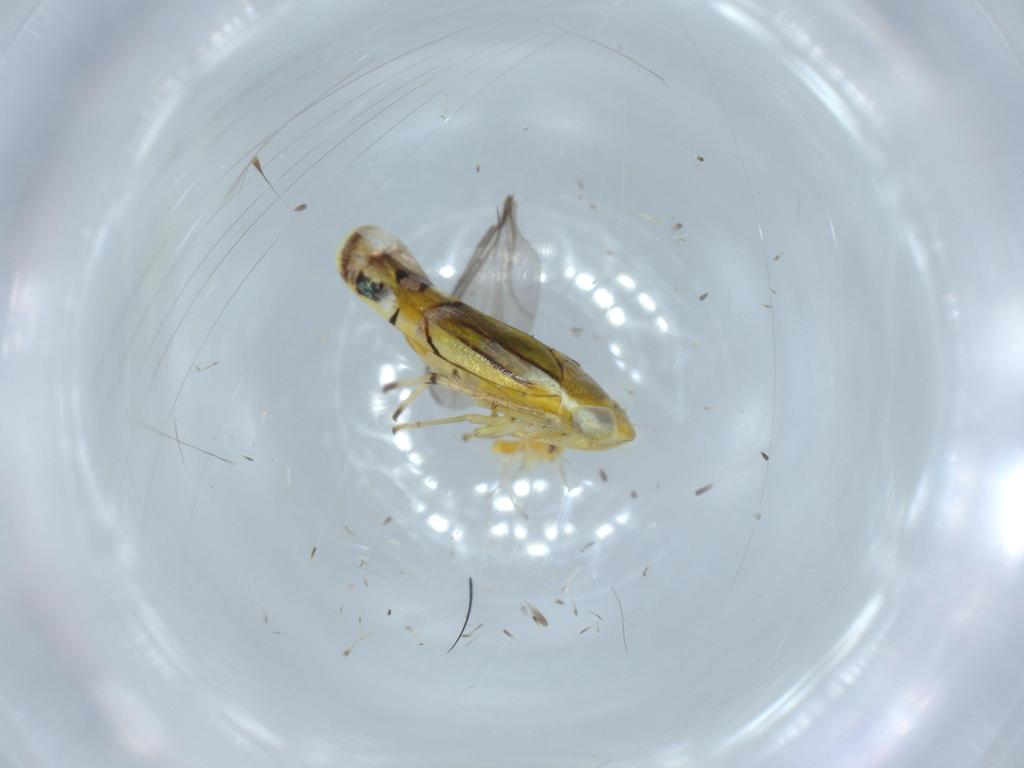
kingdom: Animalia
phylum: Arthropoda
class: Insecta
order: Hemiptera
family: Cicadellidae
